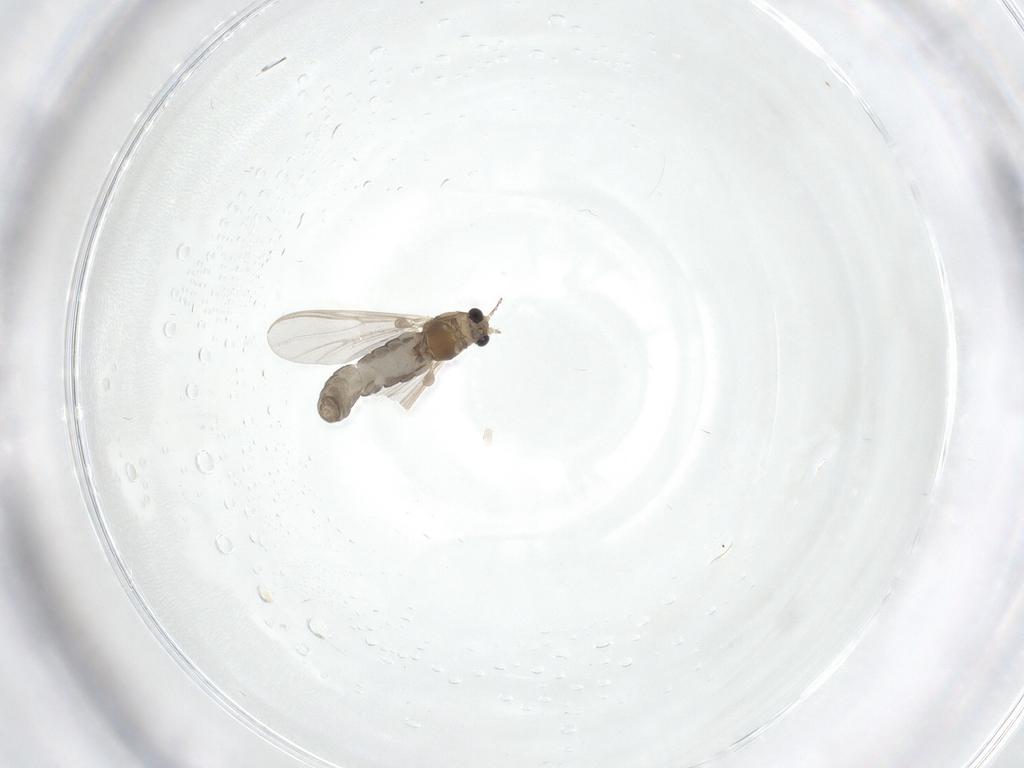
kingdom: Animalia
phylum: Arthropoda
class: Insecta
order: Diptera
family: Chironomidae
